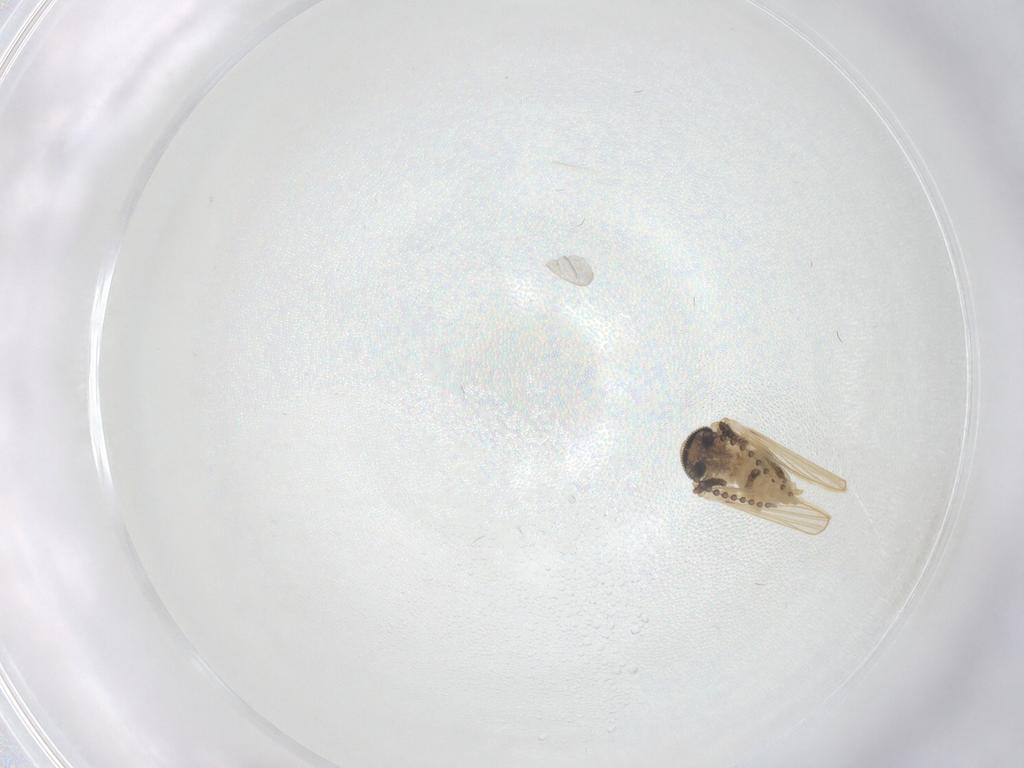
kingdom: Animalia
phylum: Arthropoda
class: Insecta
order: Diptera
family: Psychodidae
